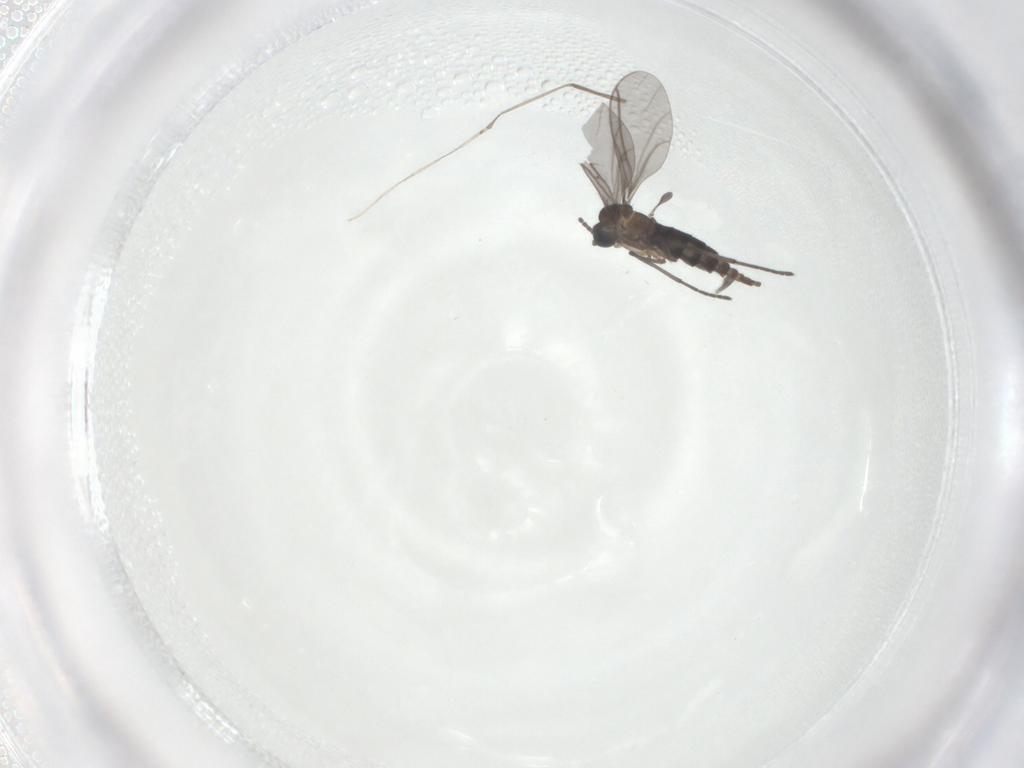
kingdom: Animalia
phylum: Arthropoda
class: Insecta
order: Diptera
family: Cecidomyiidae
